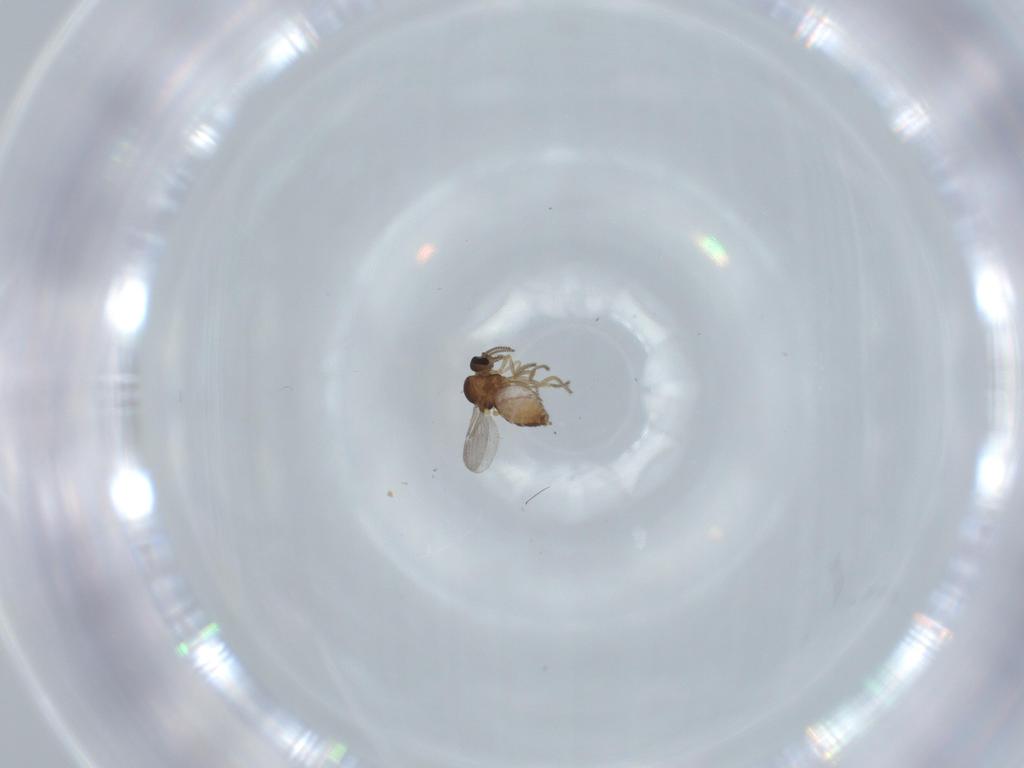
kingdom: Animalia
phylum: Arthropoda
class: Insecta
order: Diptera
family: Ceratopogonidae
